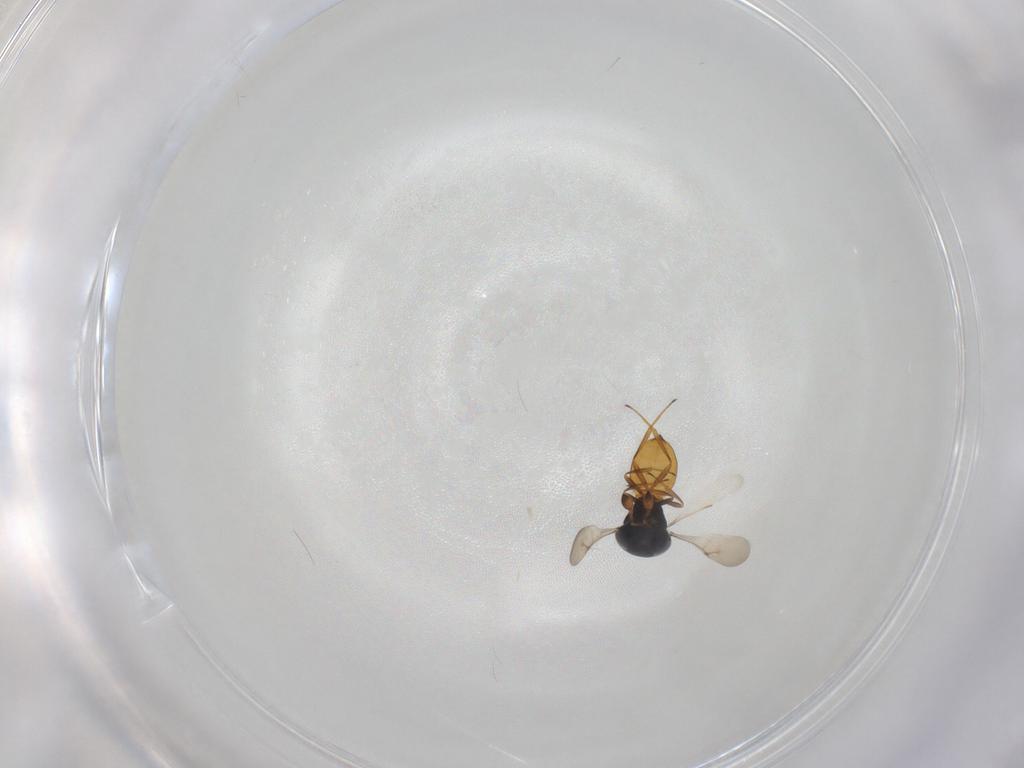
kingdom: Animalia
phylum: Arthropoda
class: Insecta
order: Hymenoptera
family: Scelionidae
